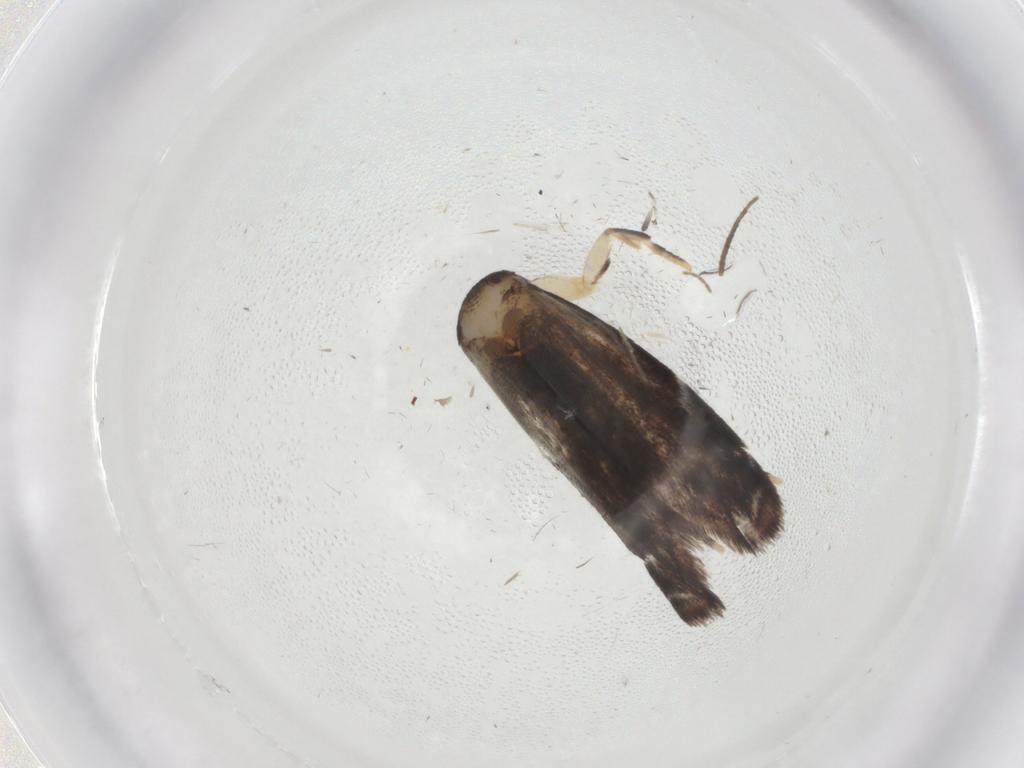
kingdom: Animalia
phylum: Arthropoda
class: Insecta
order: Lepidoptera
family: Dryadaulidae
